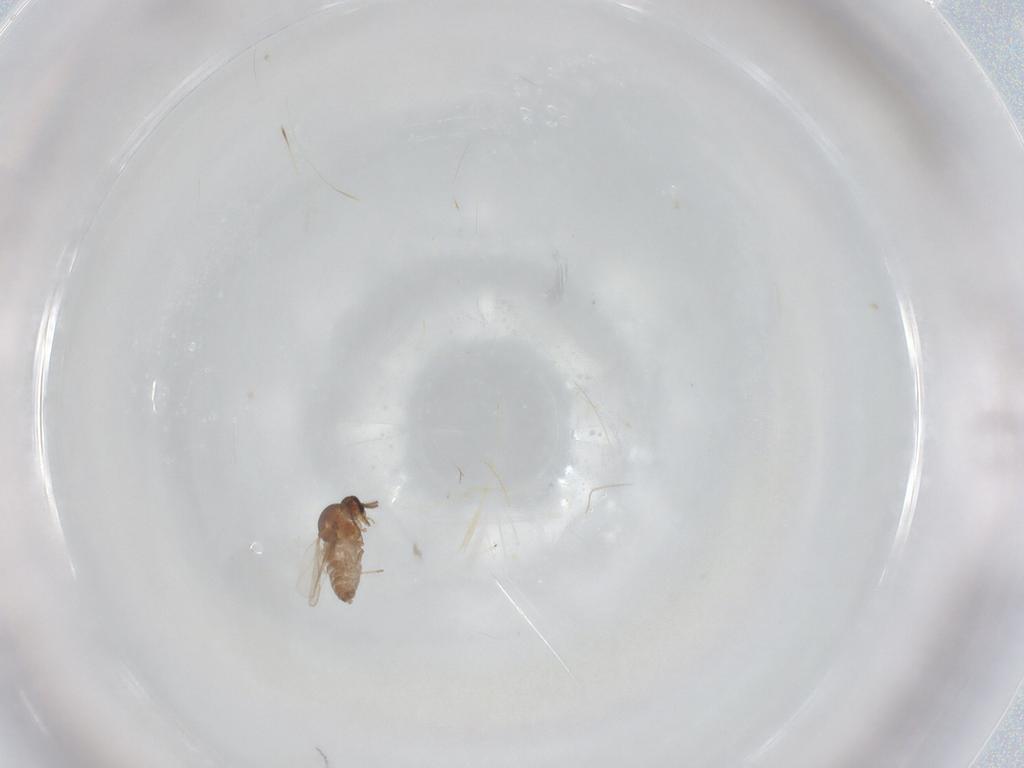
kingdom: Animalia
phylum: Arthropoda
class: Insecta
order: Diptera
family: Ceratopogonidae
